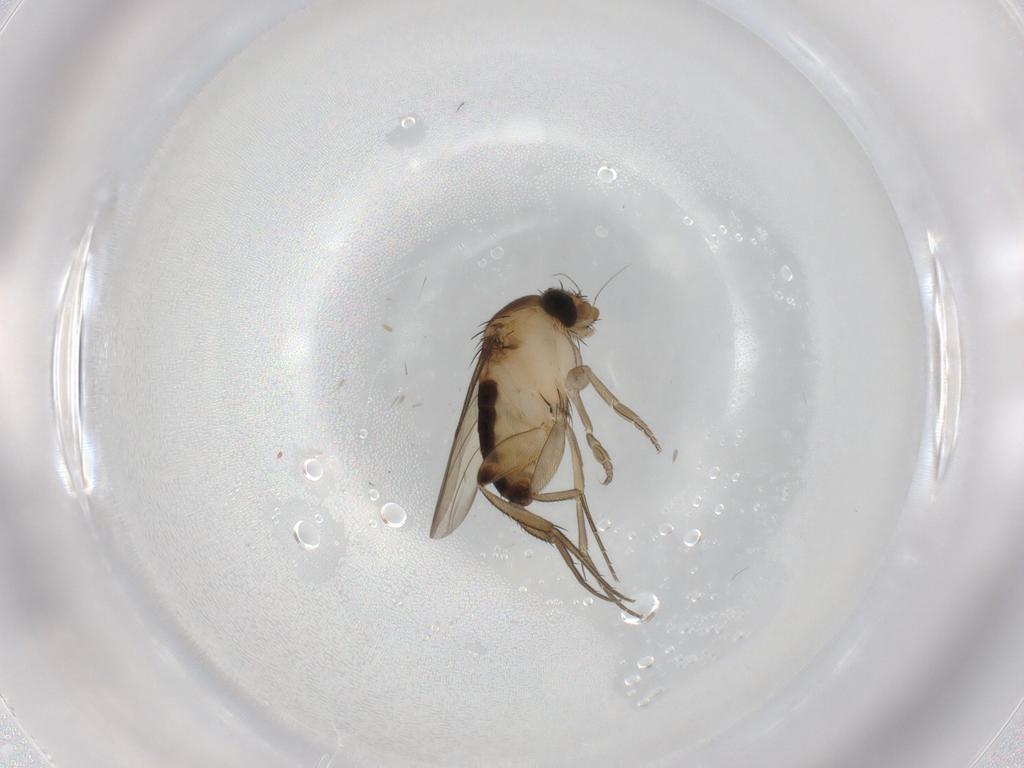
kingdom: Animalia
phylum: Arthropoda
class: Insecta
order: Diptera
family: Phoridae
